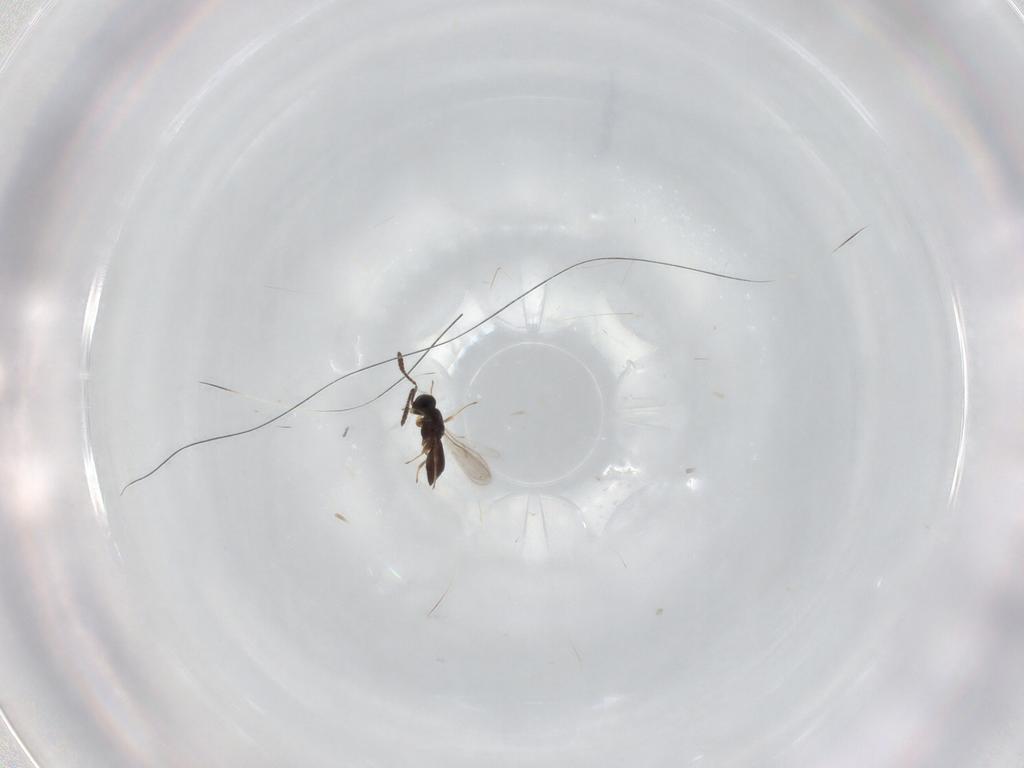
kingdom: Animalia
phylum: Arthropoda
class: Insecta
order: Hymenoptera
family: Scelionidae
